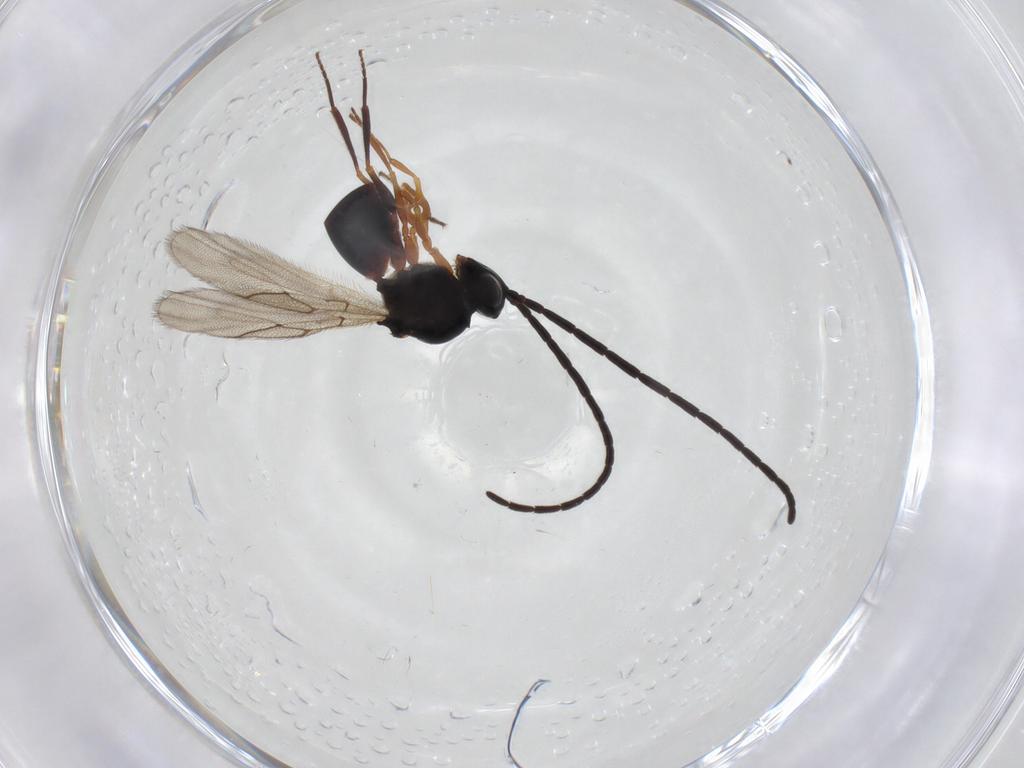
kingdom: Animalia
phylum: Arthropoda
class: Insecta
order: Hymenoptera
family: Figitidae
